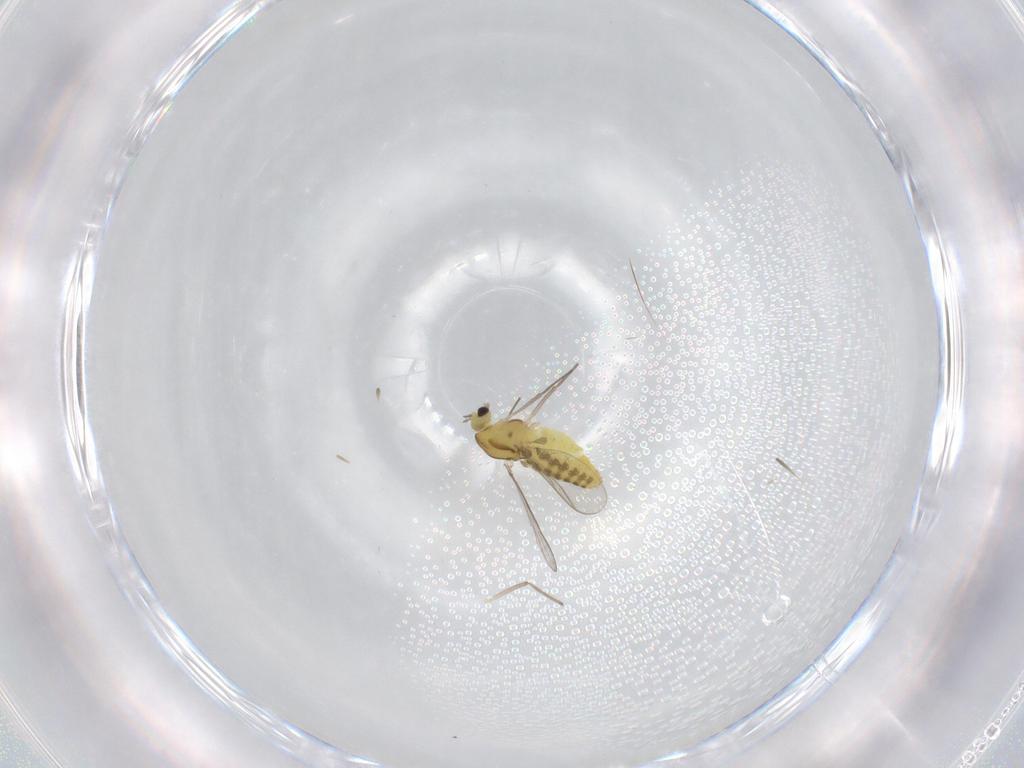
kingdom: Animalia
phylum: Arthropoda
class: Insecta
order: Diptera
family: Chironomidae
